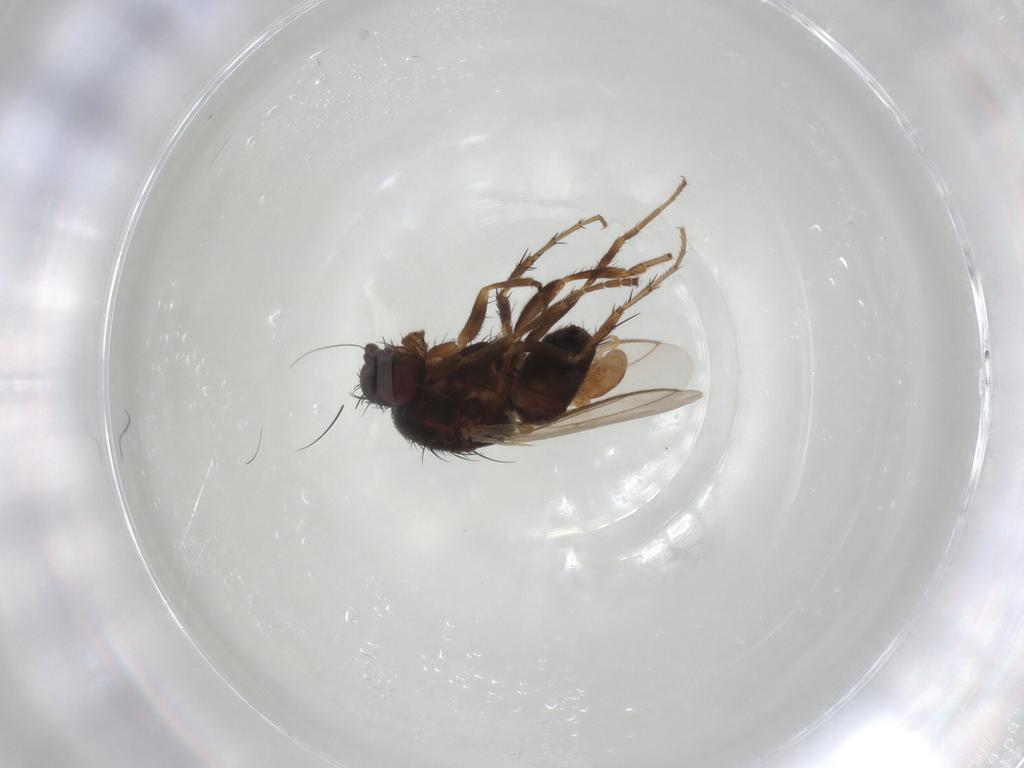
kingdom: Animalia
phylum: Arthropoda
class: Insecta
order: Diptera
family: Sphaeroceridae
